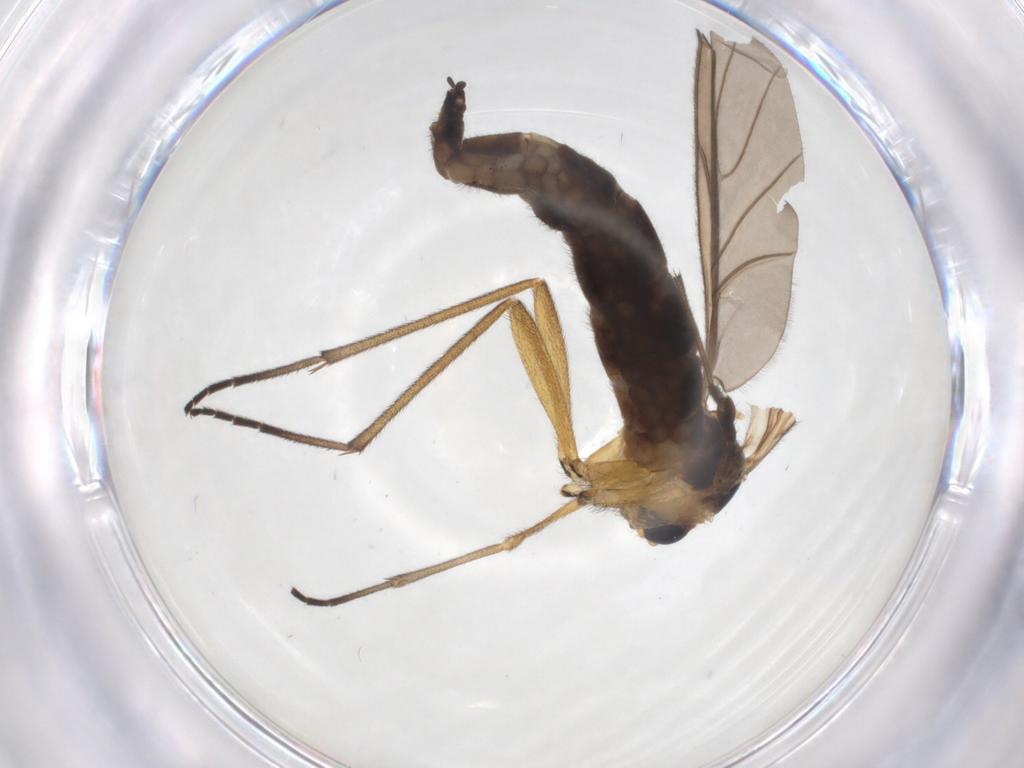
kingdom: Animalia
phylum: Arthropoda
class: Insecta
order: Diptera
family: Sciaridae
